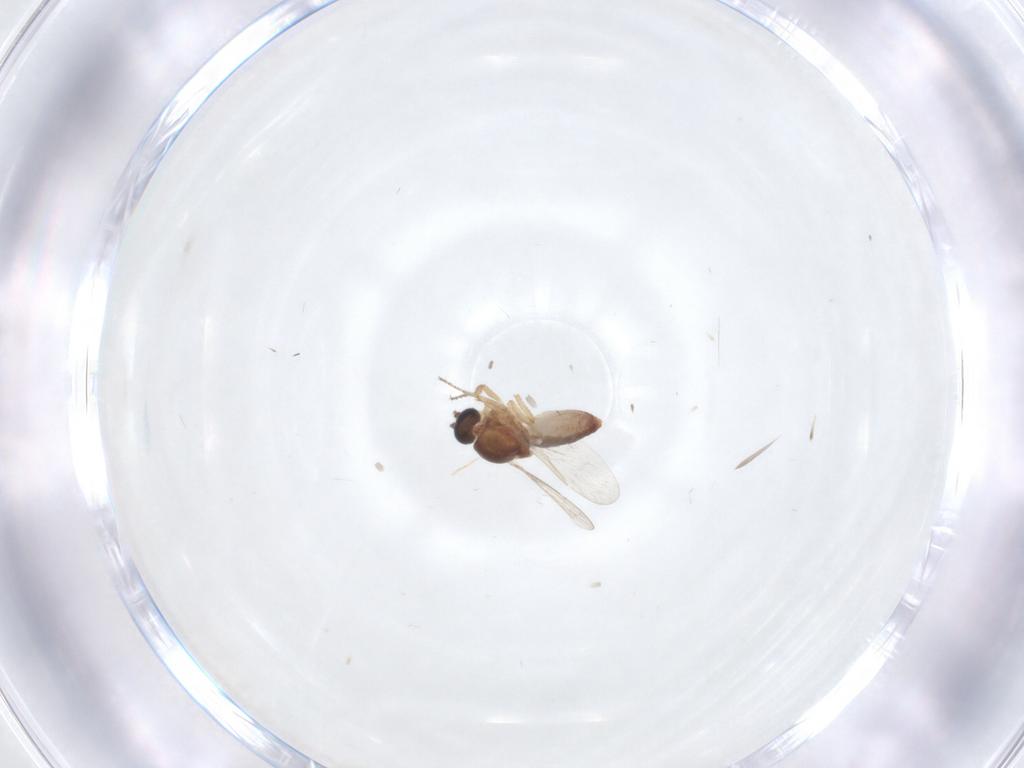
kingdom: Animalia
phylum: Arthropoda
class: Insecta
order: Diptera
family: Ceratopogonidae
